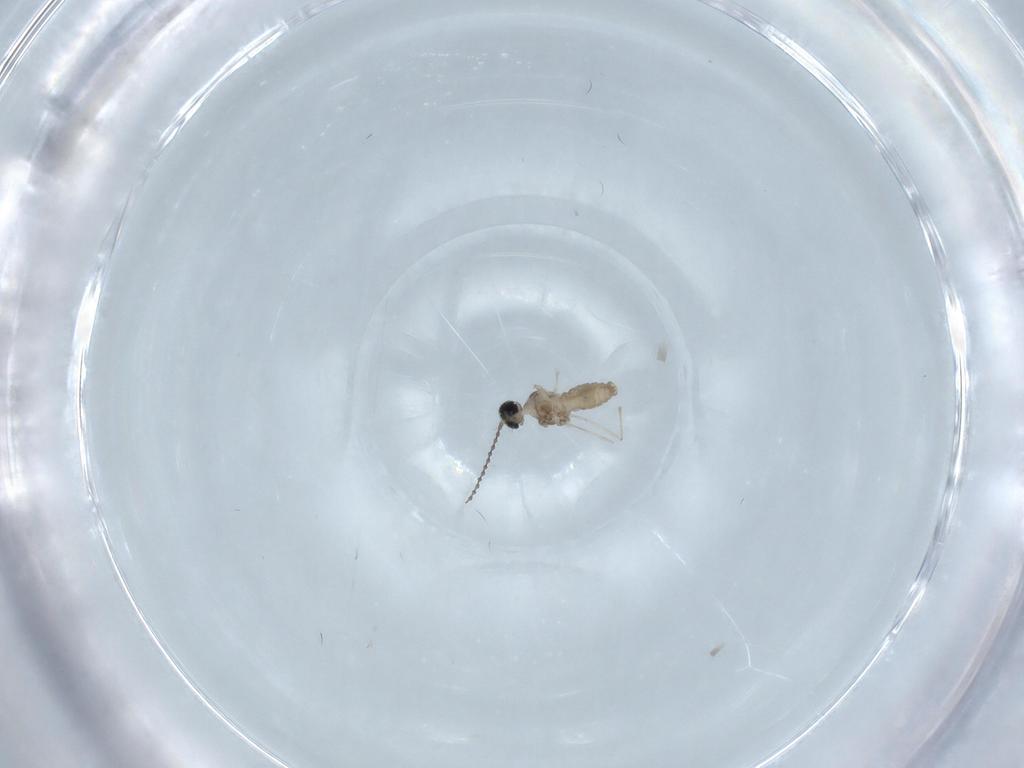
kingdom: Animalia
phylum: Arthropoda
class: Insecta
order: Diptera
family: Cecidomyiidae
